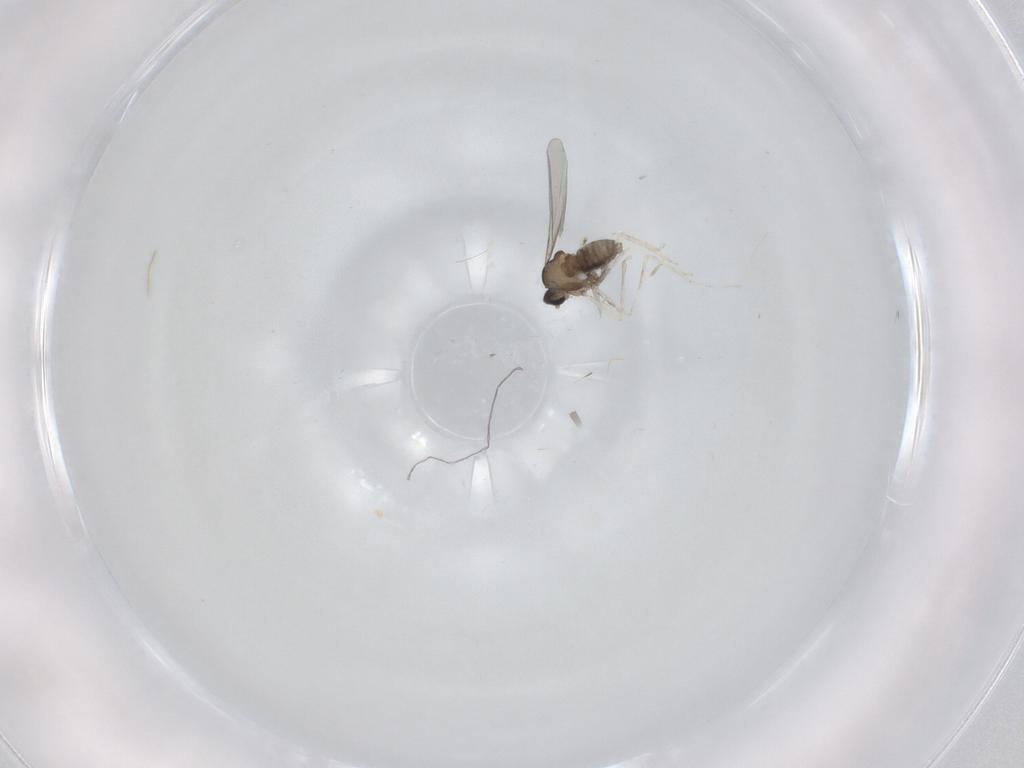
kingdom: Animalia
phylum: Arthropoda
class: Insecta
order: Diptera
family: Cecidomyiidae
